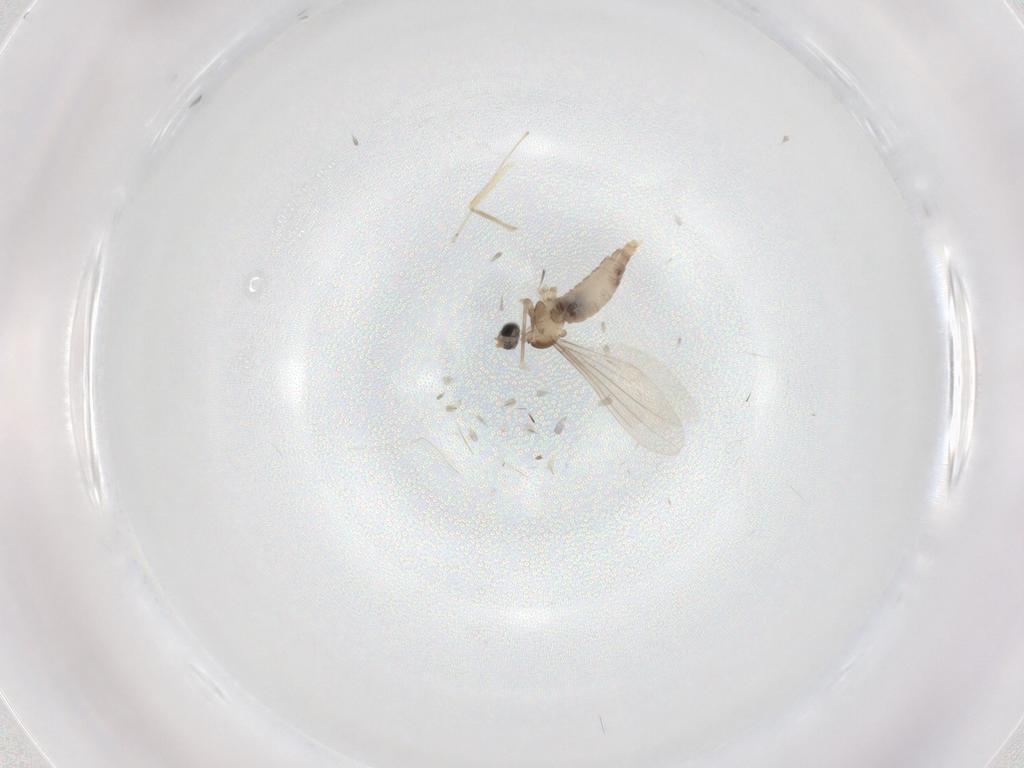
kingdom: Animalia
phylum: Arthropoda
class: Insecta
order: Diptera
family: Cecidomyiidae
